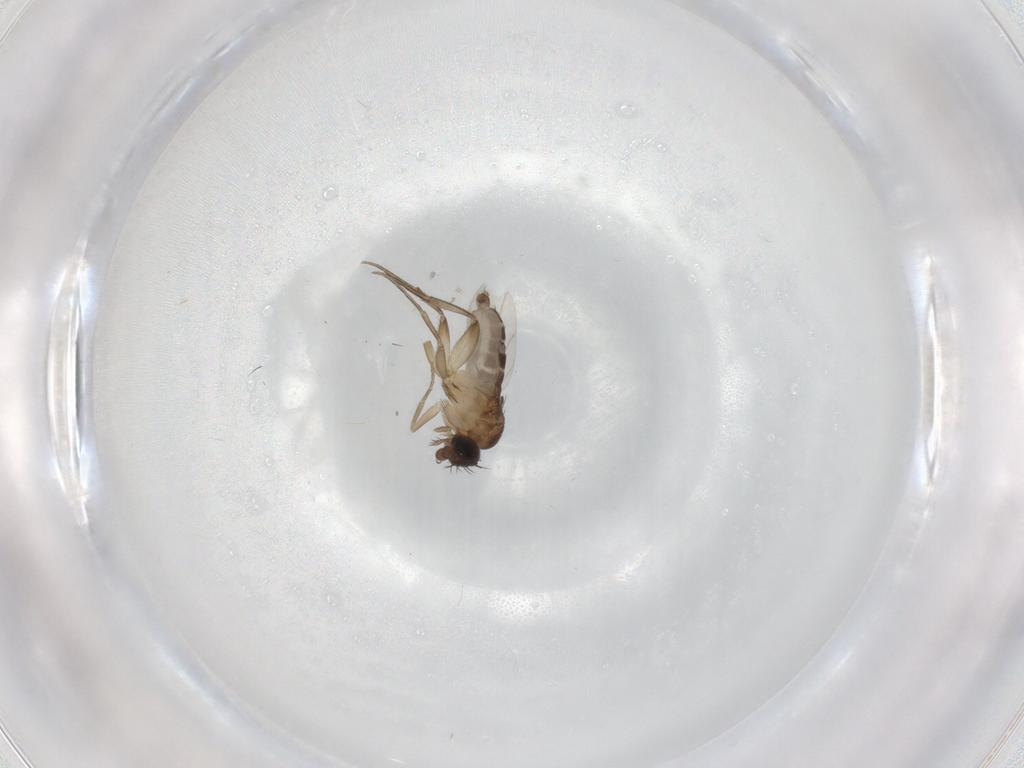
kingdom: Animalia
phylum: Arthropoda
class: Insecta
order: Diptera
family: Phoridae
